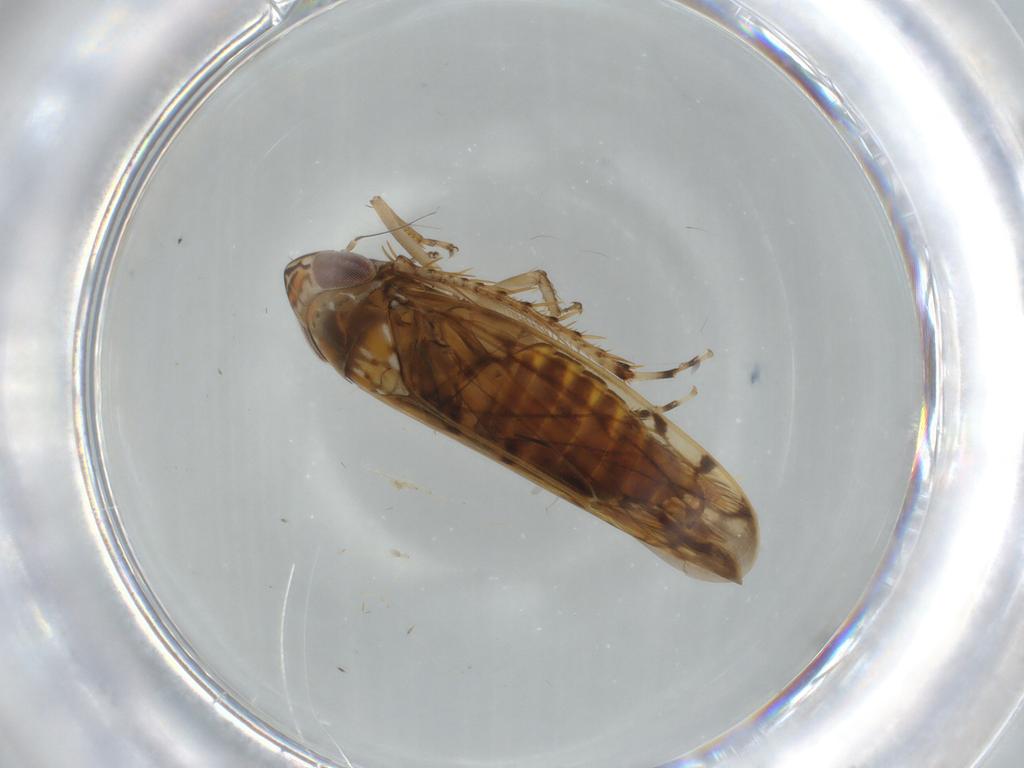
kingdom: Animalia
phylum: Arthropoda
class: Insecta
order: Hemiptera
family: Cicadellidae
